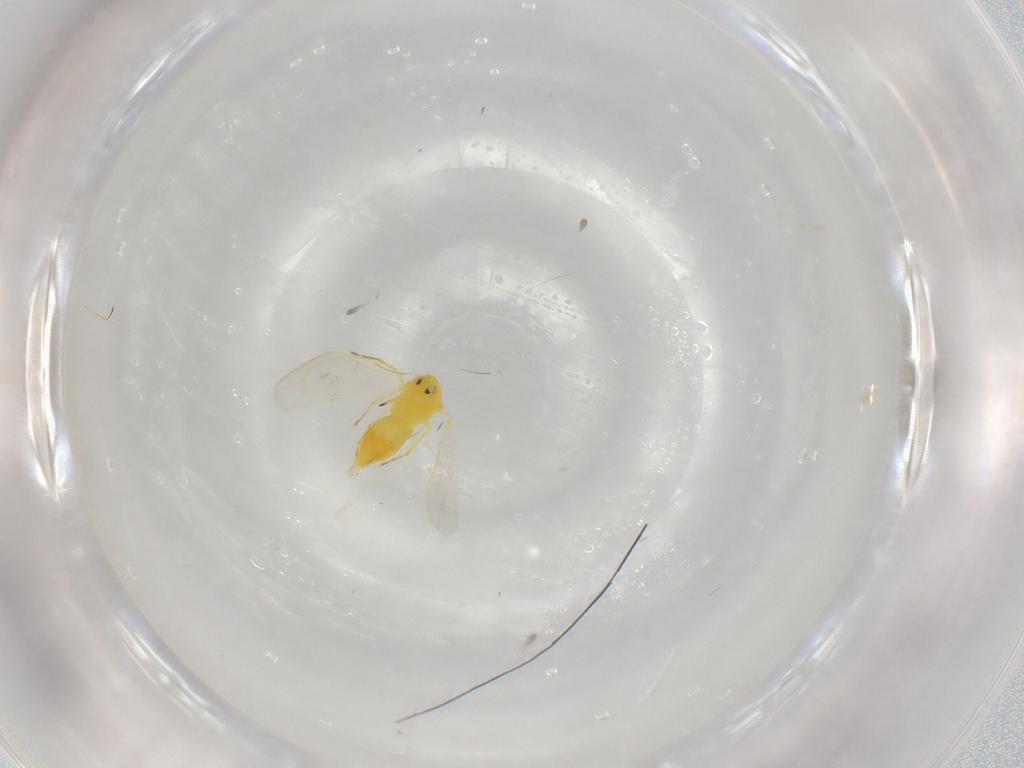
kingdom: Animalia
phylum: Arthropoda
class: Insecta
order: Hemiptera
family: Aleyrodidae
